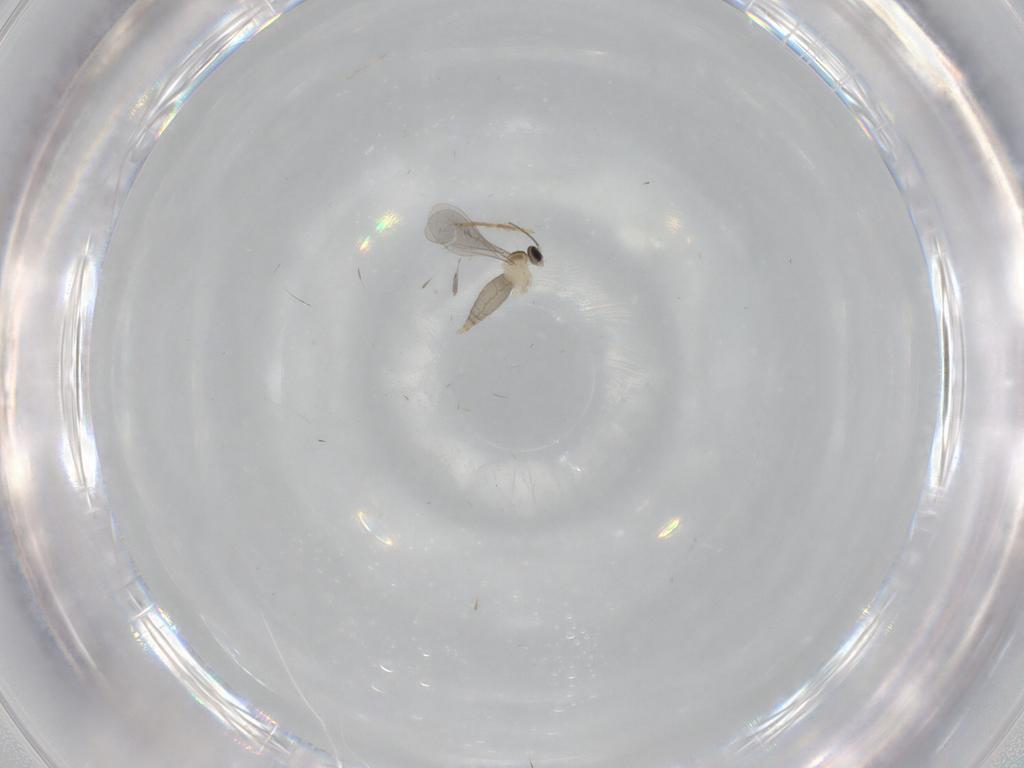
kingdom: Animalia
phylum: Arthropoda
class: Insecta
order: Diptera
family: Chironomidae
